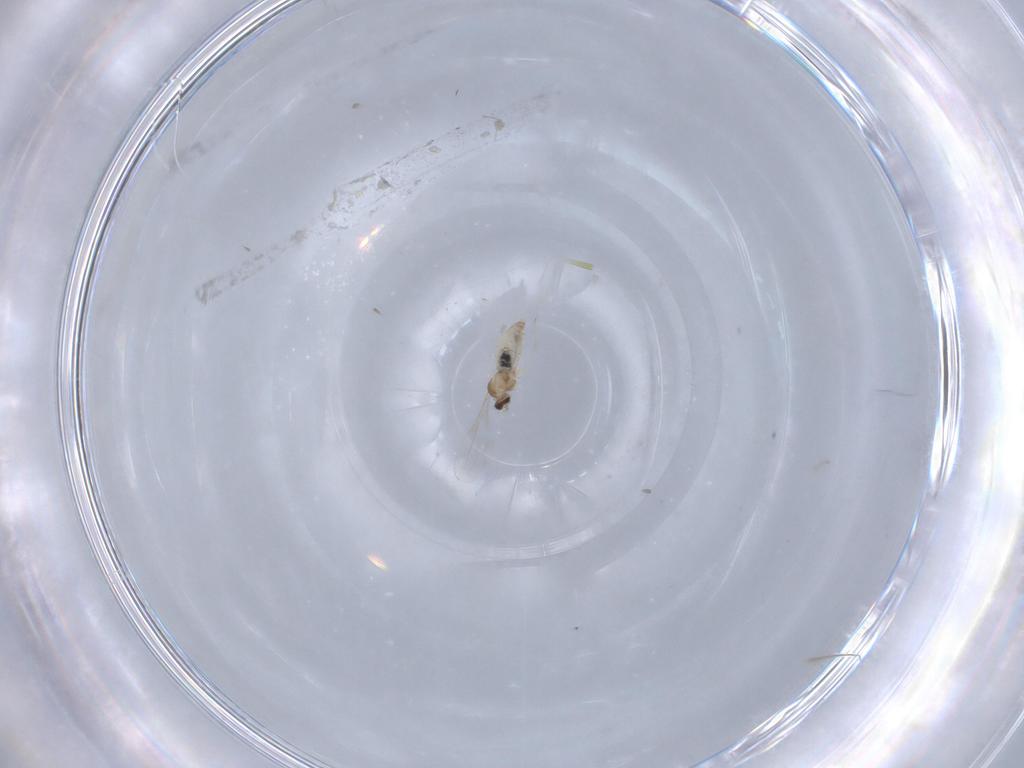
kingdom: Animalia
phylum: Arthropoda
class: Insecta
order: Diptera
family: Cecidomyiidae
